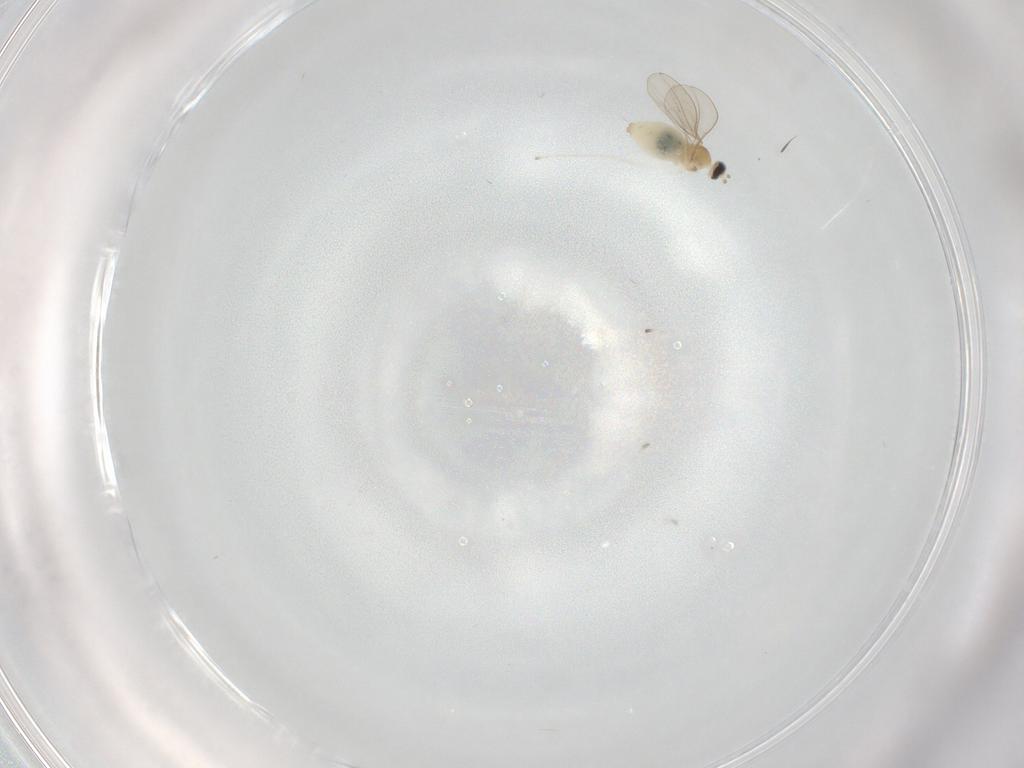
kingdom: Animalia
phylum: Arthropoda
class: Insecta
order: Diptera
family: Cecidomyiidae
